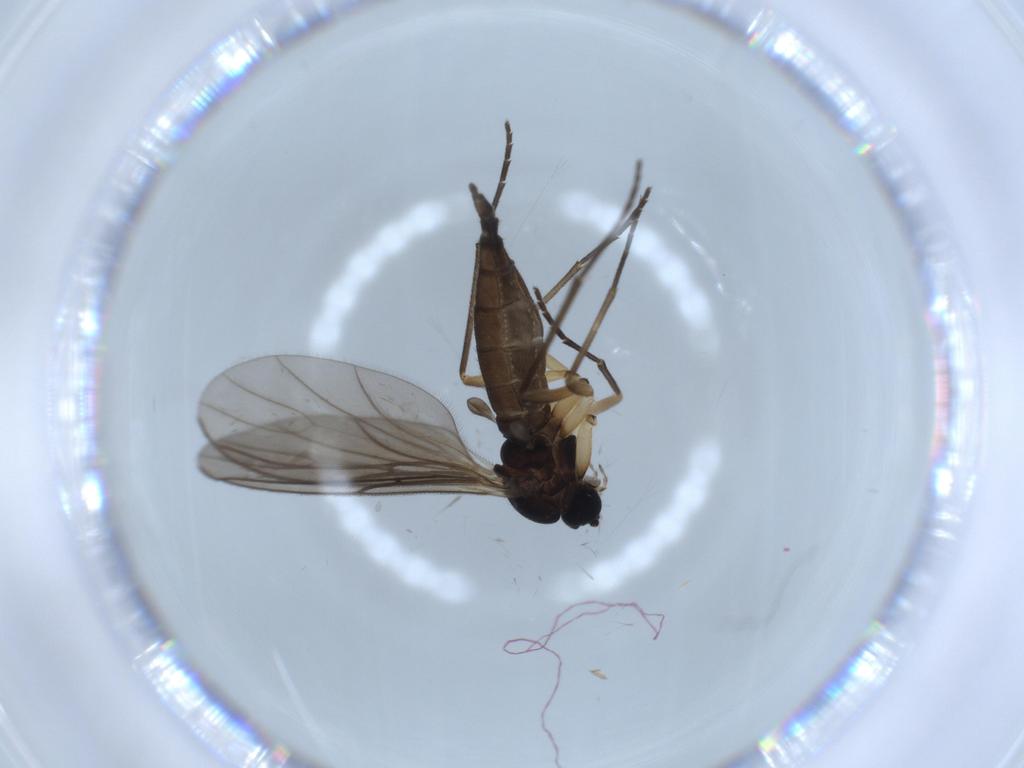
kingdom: Animalia
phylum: Arthropoda
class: Insecta
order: Diptera
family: Sciaridae
